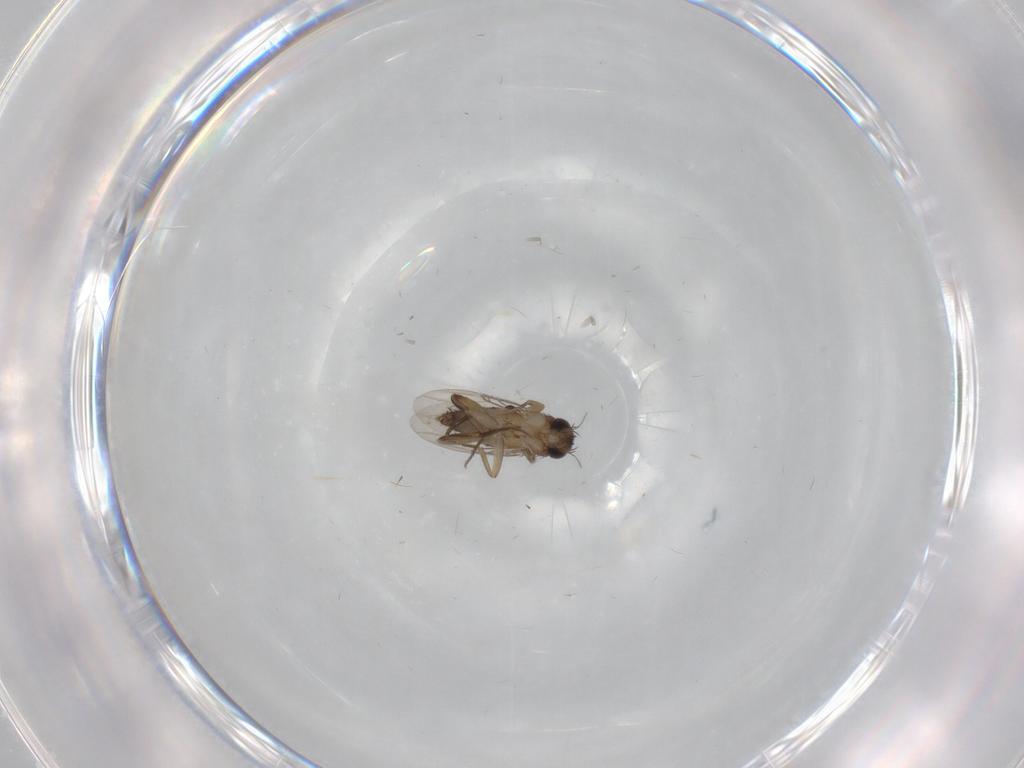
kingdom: Animalia
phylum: Arthropoda
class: Insecta
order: Diptera
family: Phoridae
